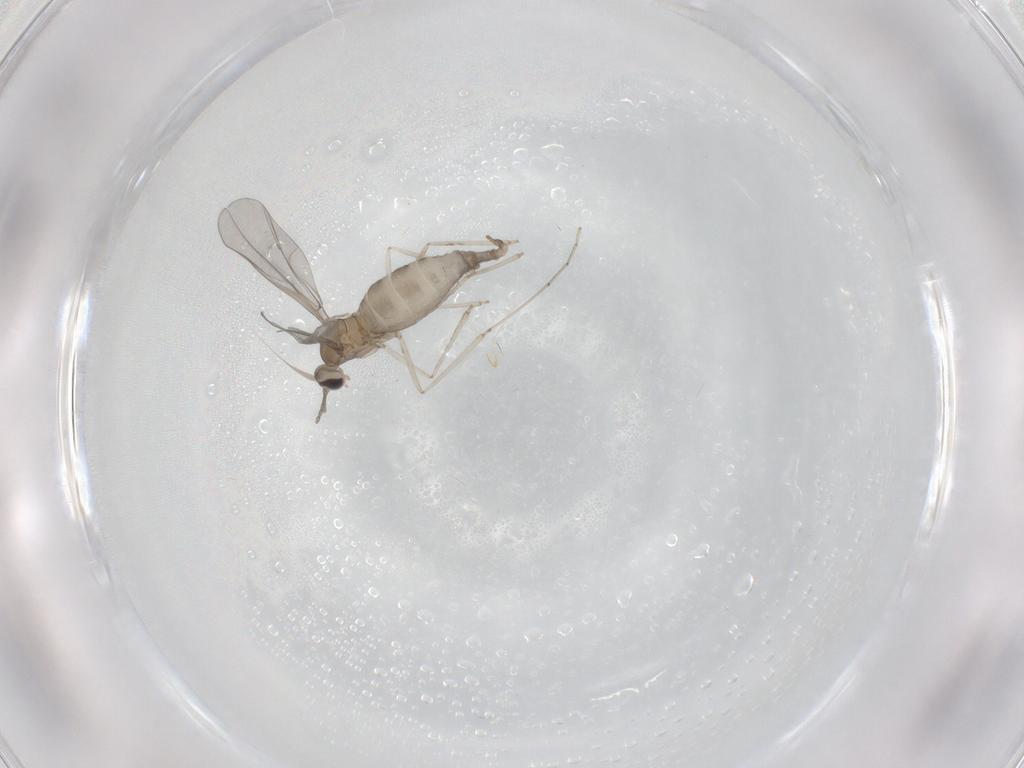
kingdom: Animalia
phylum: Arthropoda
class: Insecta
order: Diptera
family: Cecidomyiidae
